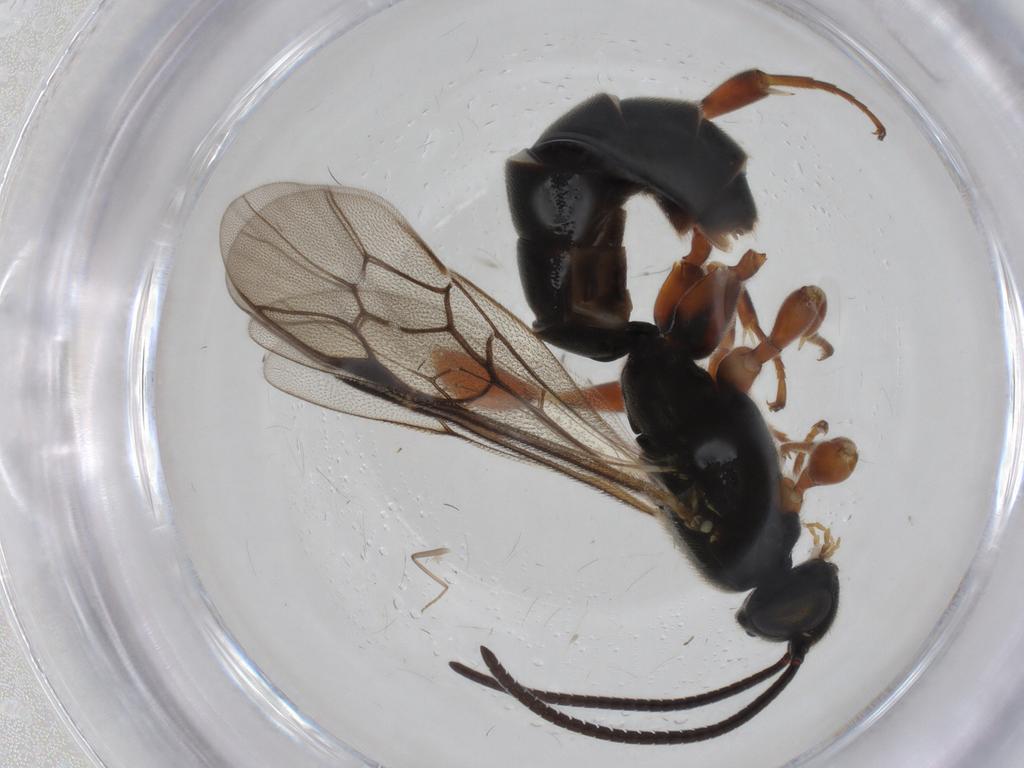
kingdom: Animalia
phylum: Arthropoda
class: Insecta
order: Hymenoptera
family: Ichneumonidae
